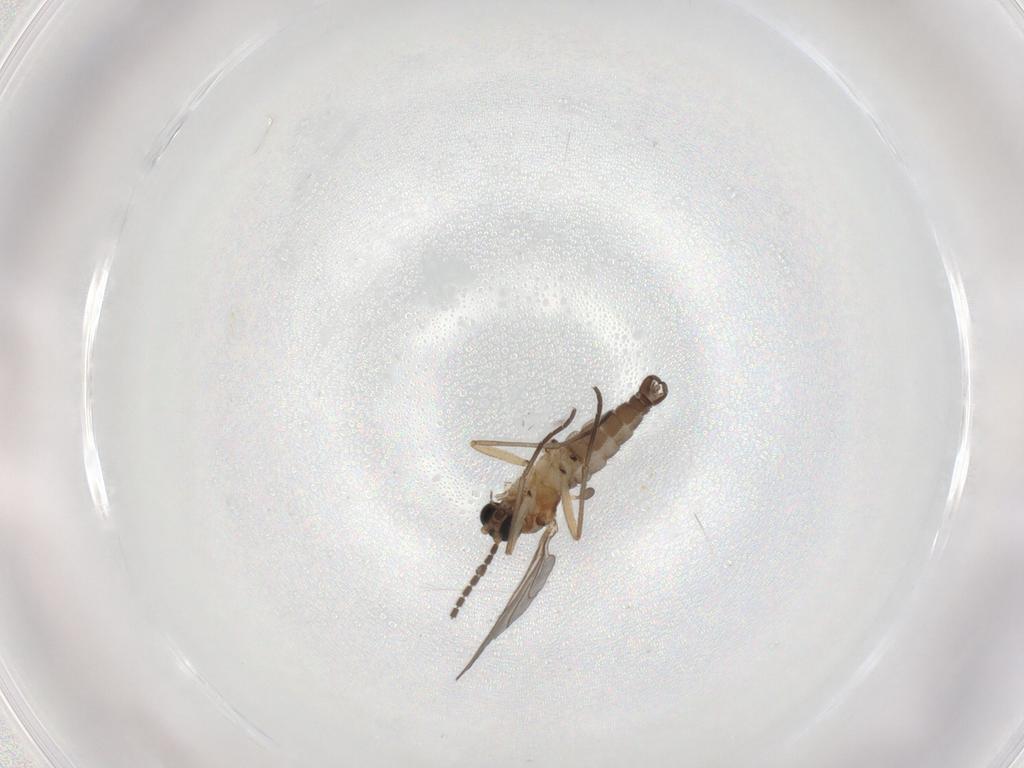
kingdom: Animalia
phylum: Arthropoda
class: Insecta
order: Diptera
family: Sciaridae
